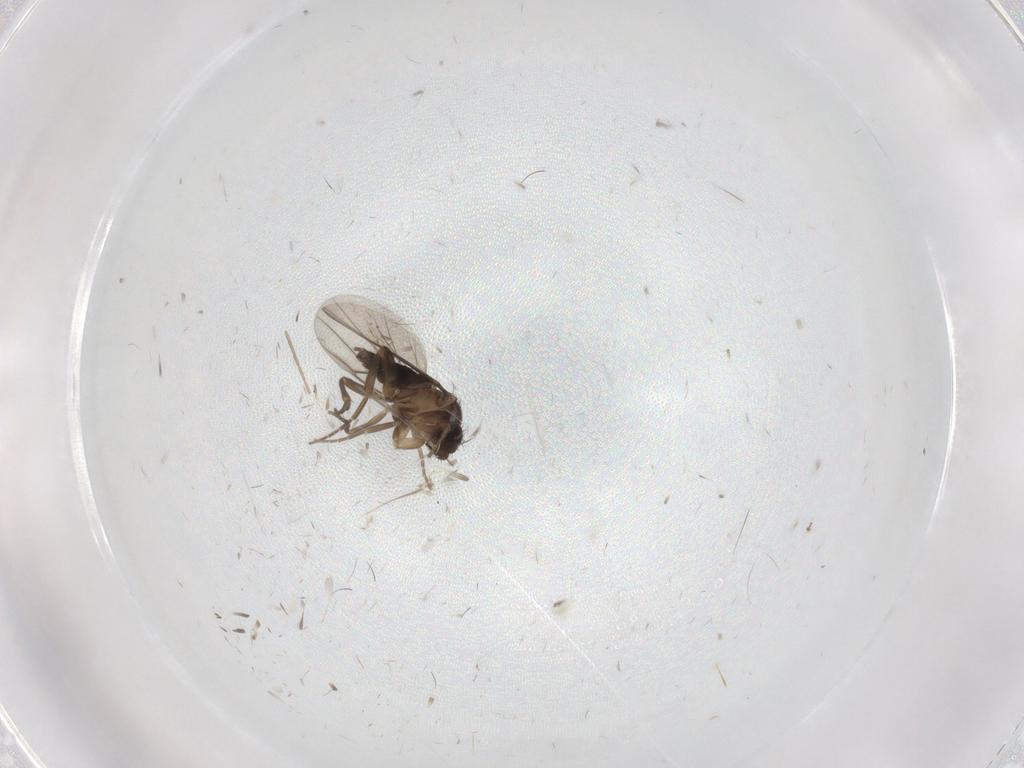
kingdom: Animalia
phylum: Arthropoda
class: Insecta
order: Diptera
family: Chironomidae
